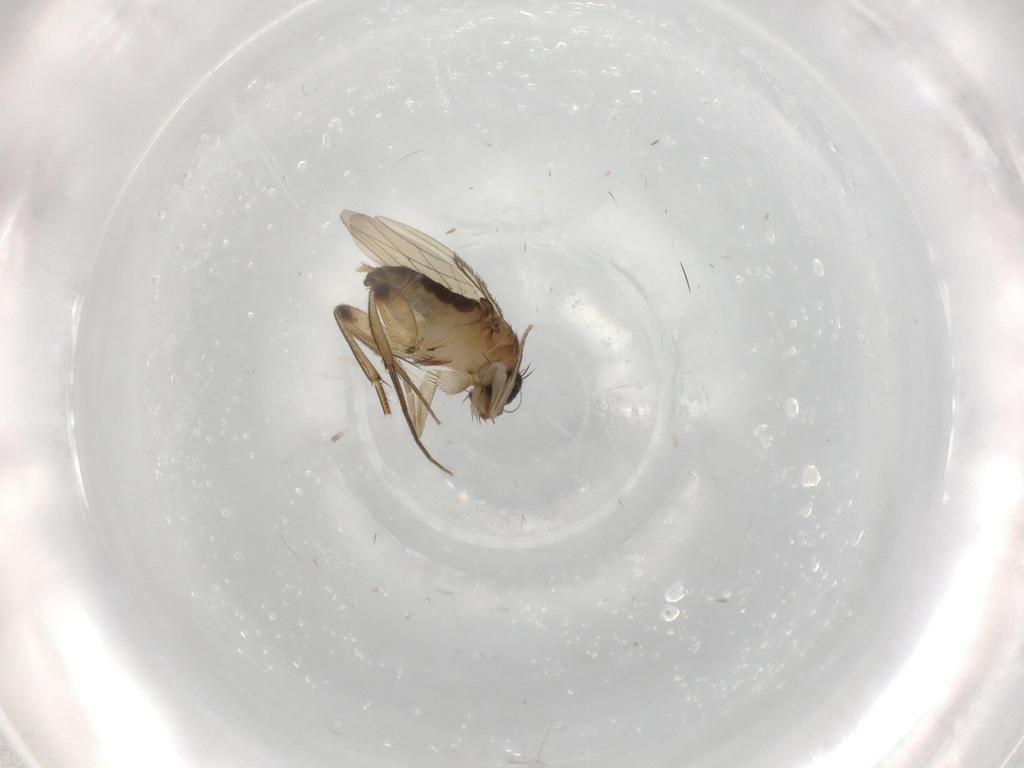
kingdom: Animalia
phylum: Arthropoda
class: Insecta
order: Diptera
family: Phoridae
